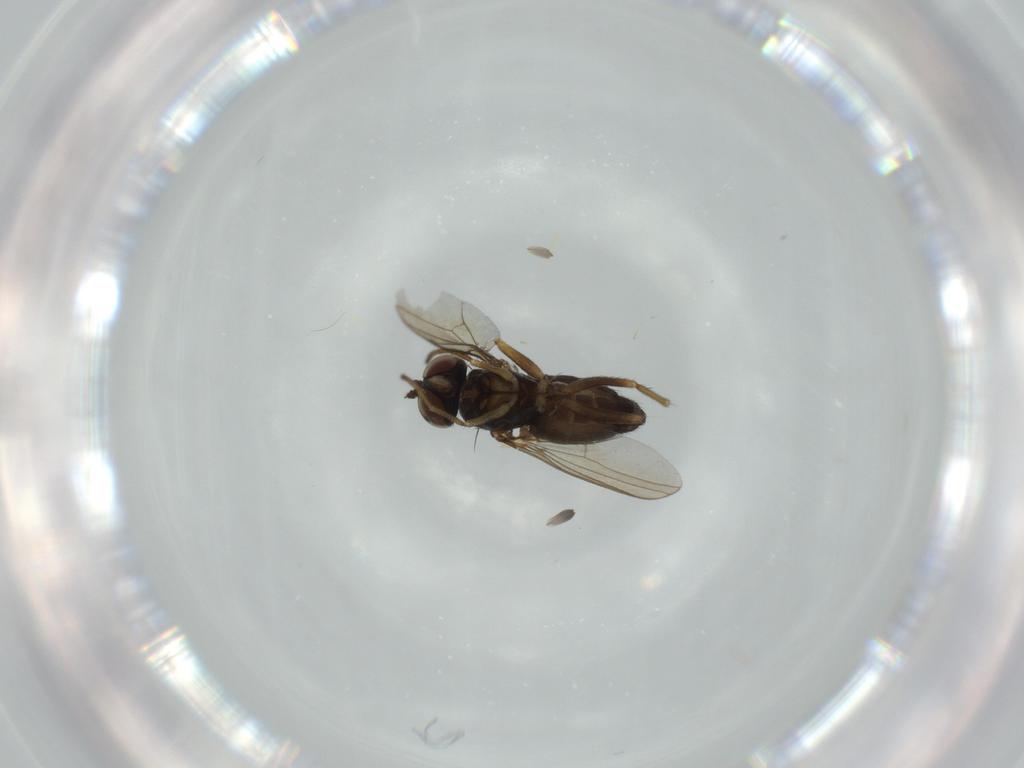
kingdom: Animalia
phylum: Arthropoda
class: Insecta
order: Diptera
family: Dolichopodidae
